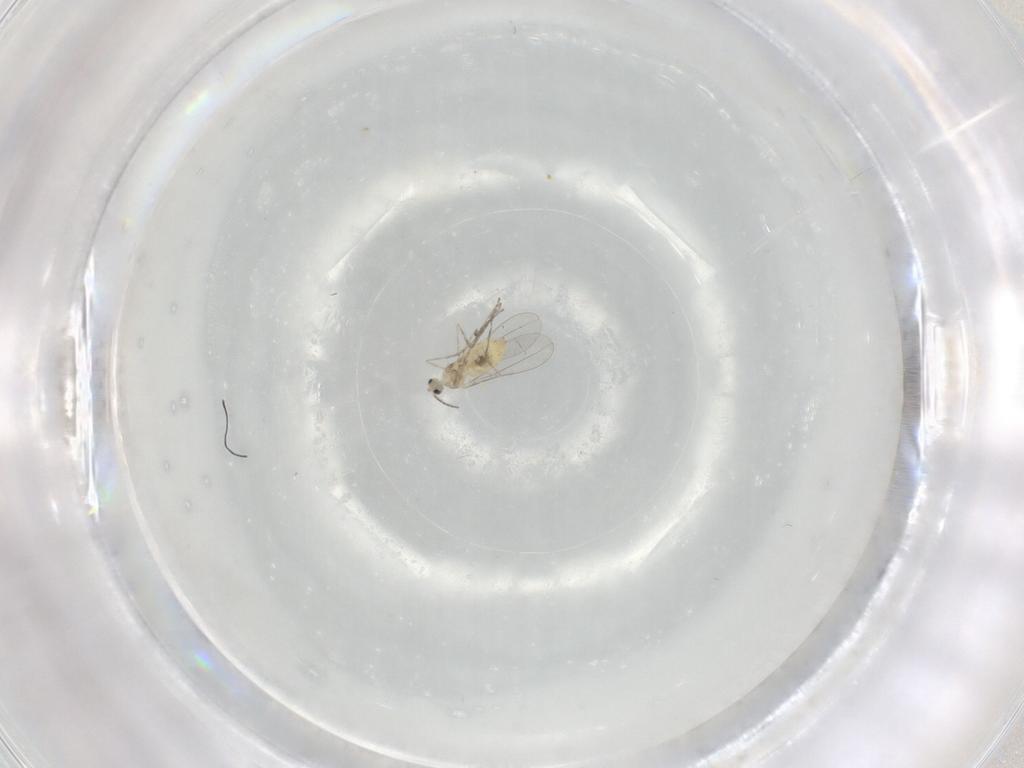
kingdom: Animalia
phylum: Arthropoda
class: Insecta
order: Diptera
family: Cecidomyiidae
